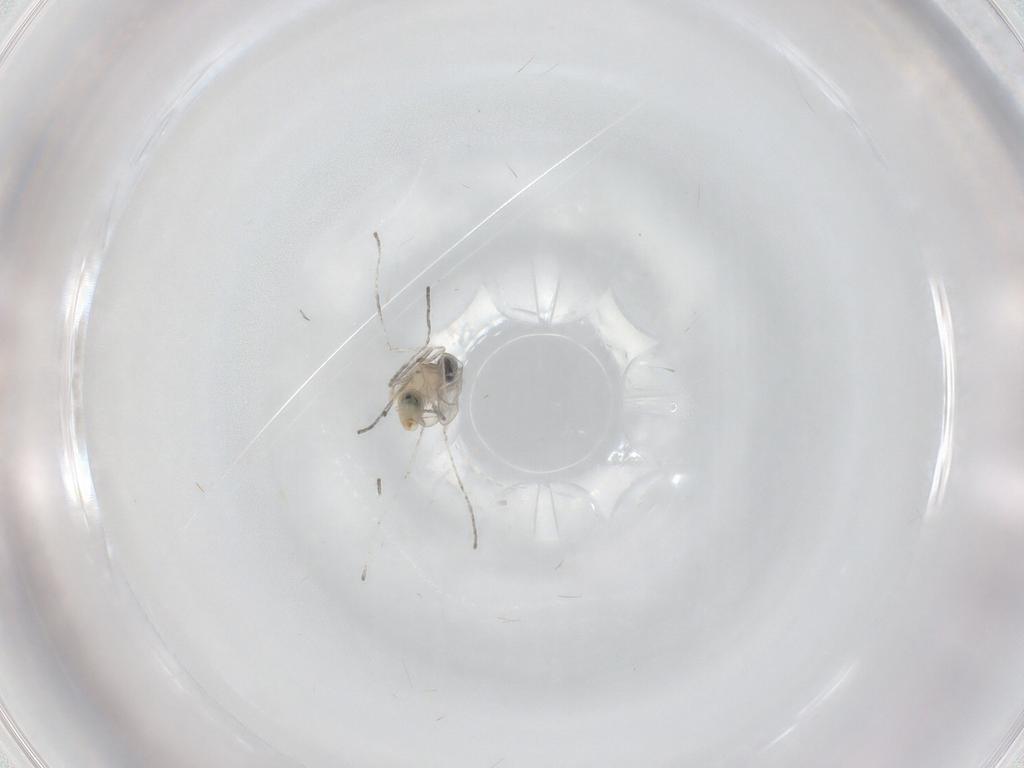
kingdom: Animalia
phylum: Arthropoda
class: Insecta
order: Diptera
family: Cecidomyiidae
